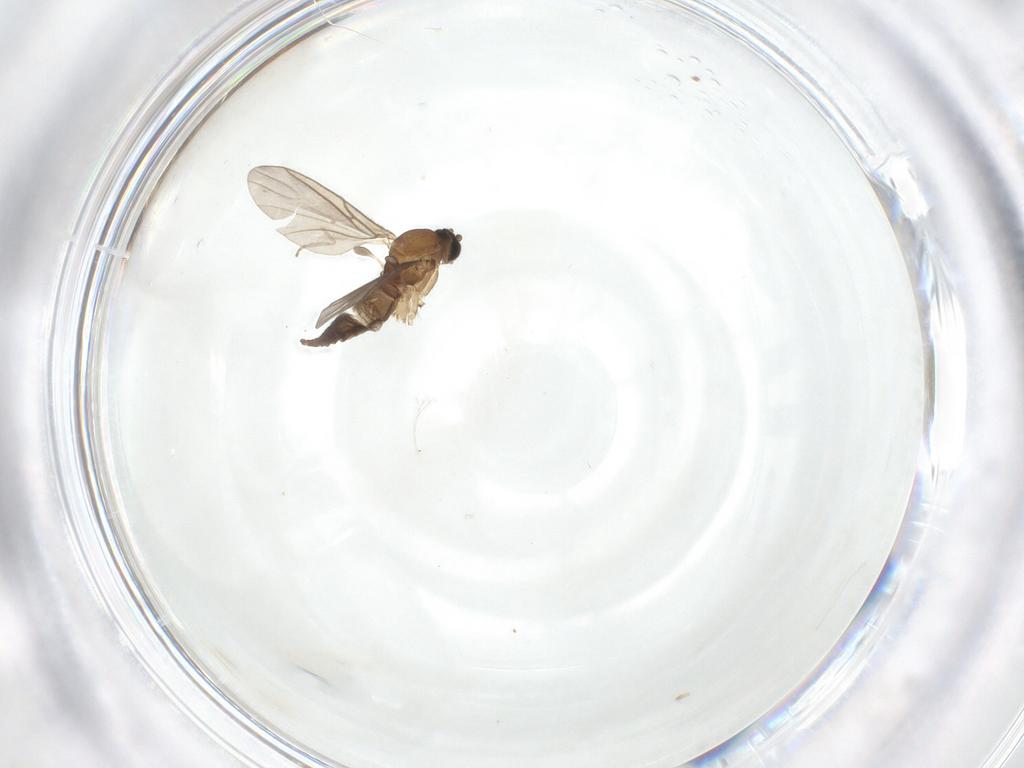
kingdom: Animalia
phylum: Arthropoda
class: Insecta
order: Diptera
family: Sciaridae
